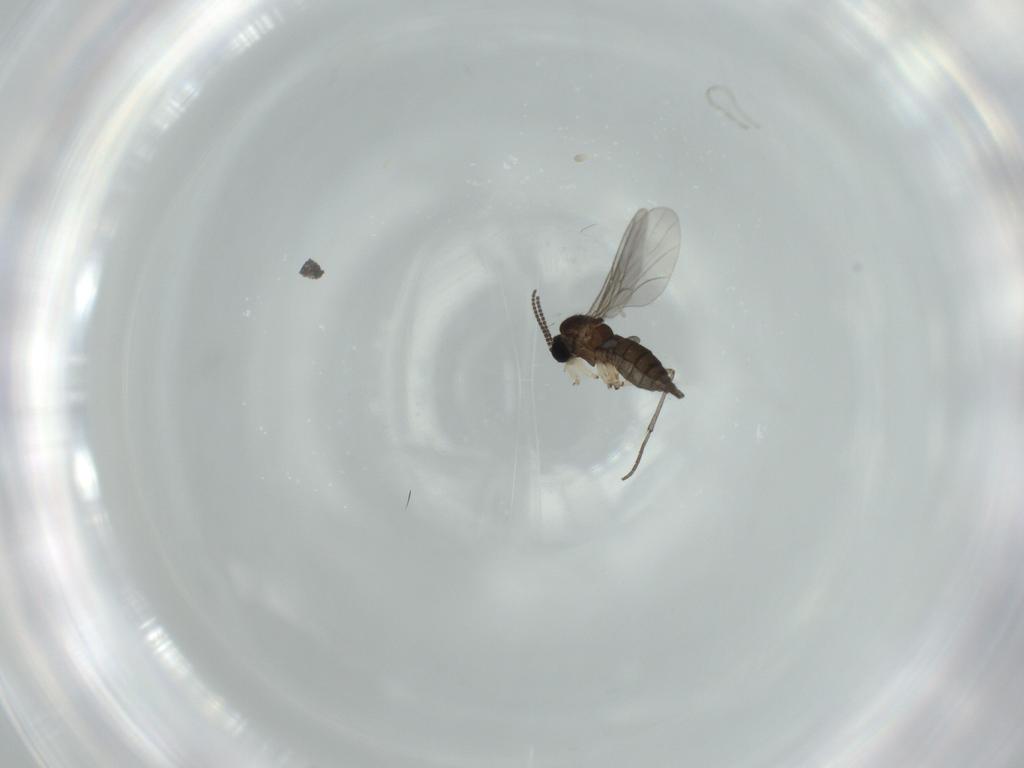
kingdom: Animalia
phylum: Arthropoda
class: Insecta
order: Diptera
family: Sciaridae
